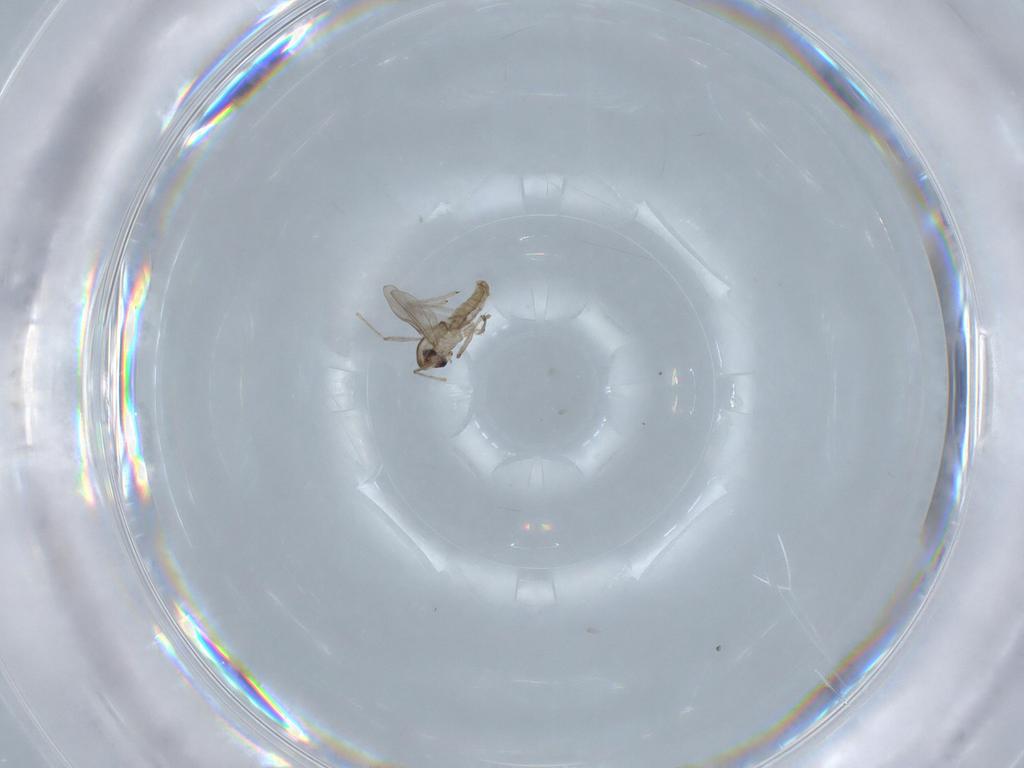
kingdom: Animalia
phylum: Arthropoda
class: Insecta
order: Diptera
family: Chironomidae
